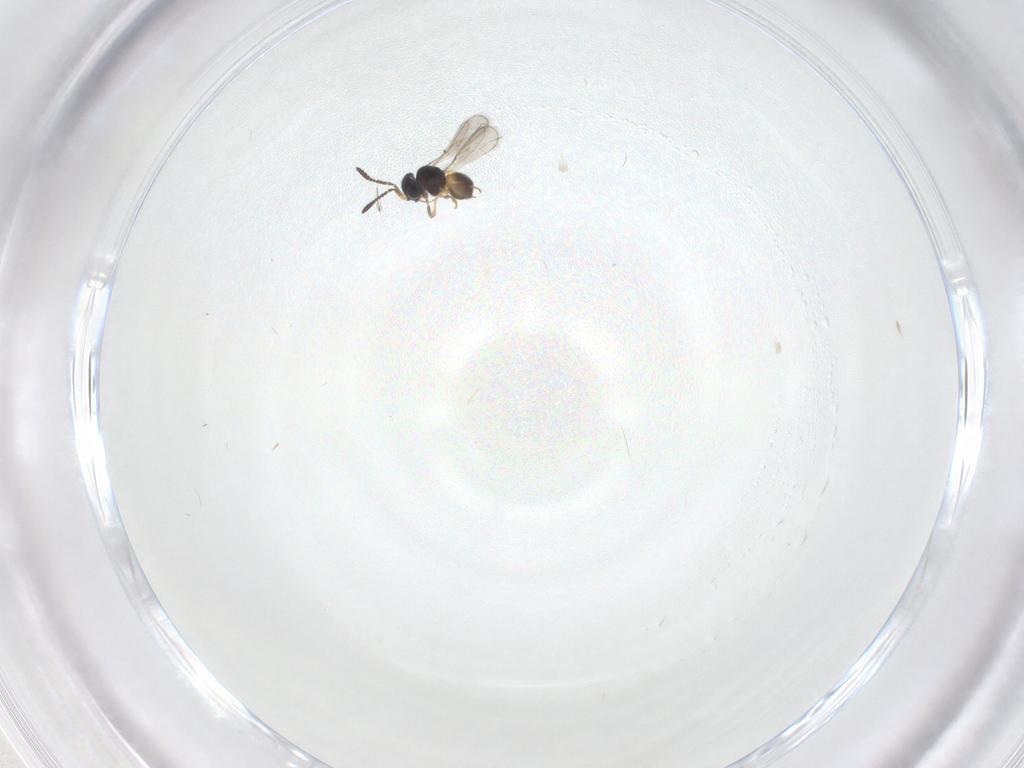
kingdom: Animalia
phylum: Arthropoda
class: Insecta
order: Hymenoptera
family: Scelionidae
